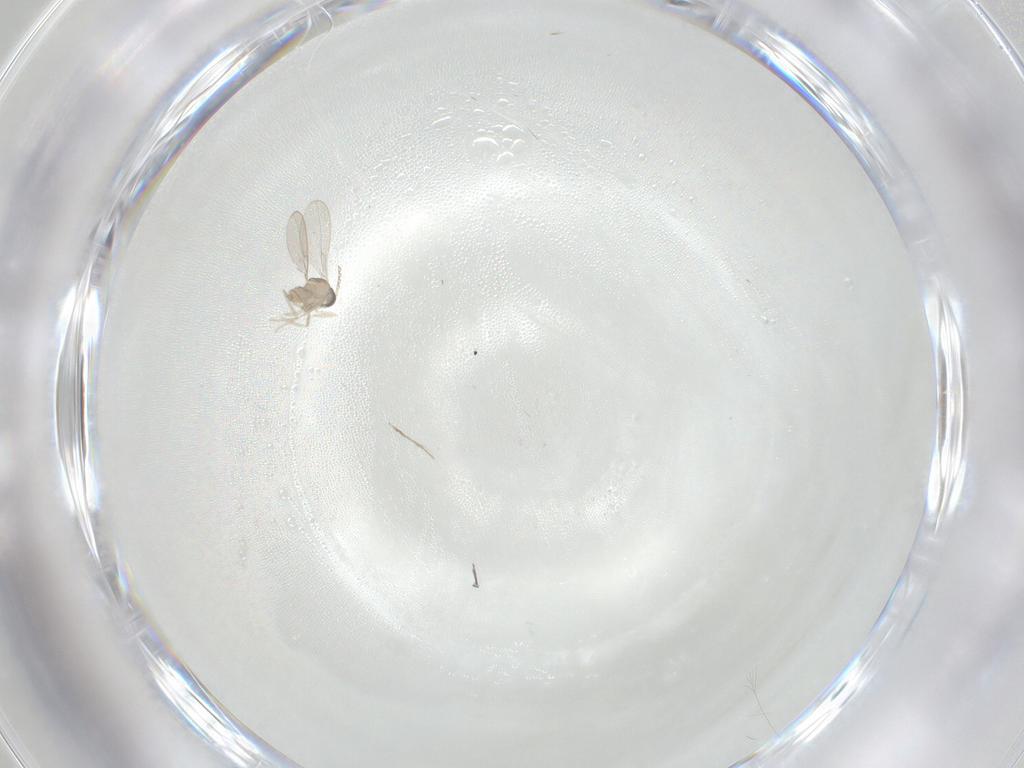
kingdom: Animalia
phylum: Arthropoda
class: Insecta
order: Diptera
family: Cecidomyiidae
